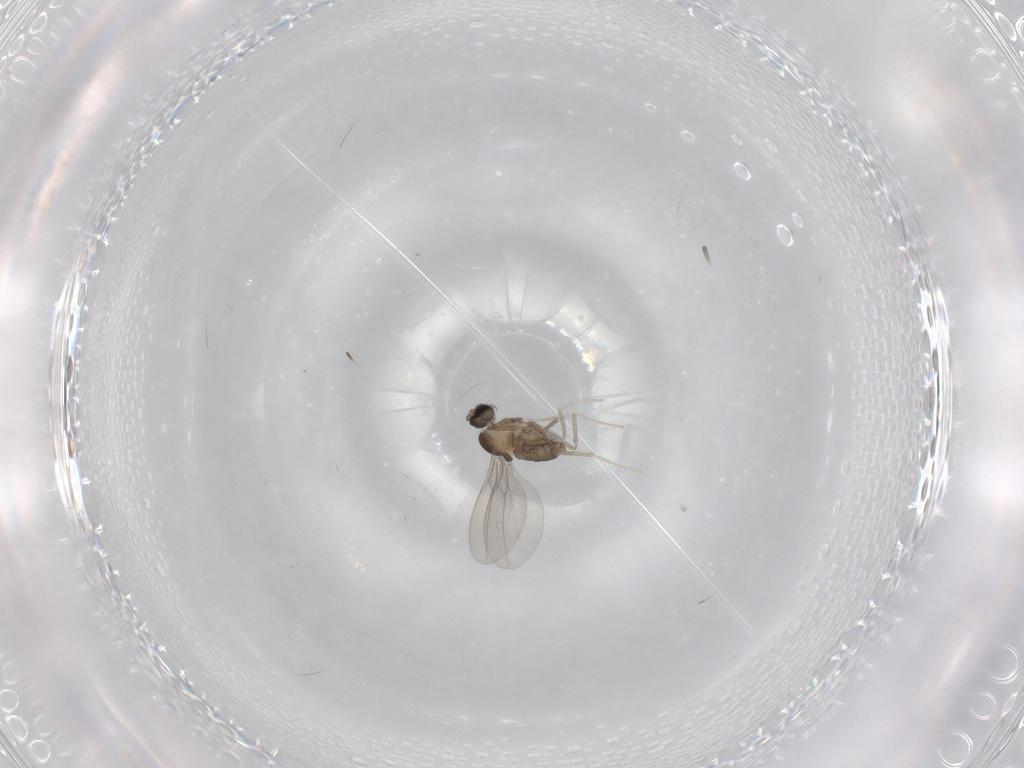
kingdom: Animalia
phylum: Arthropoda
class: Insecta
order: Diptera
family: Cecidomyiidae
